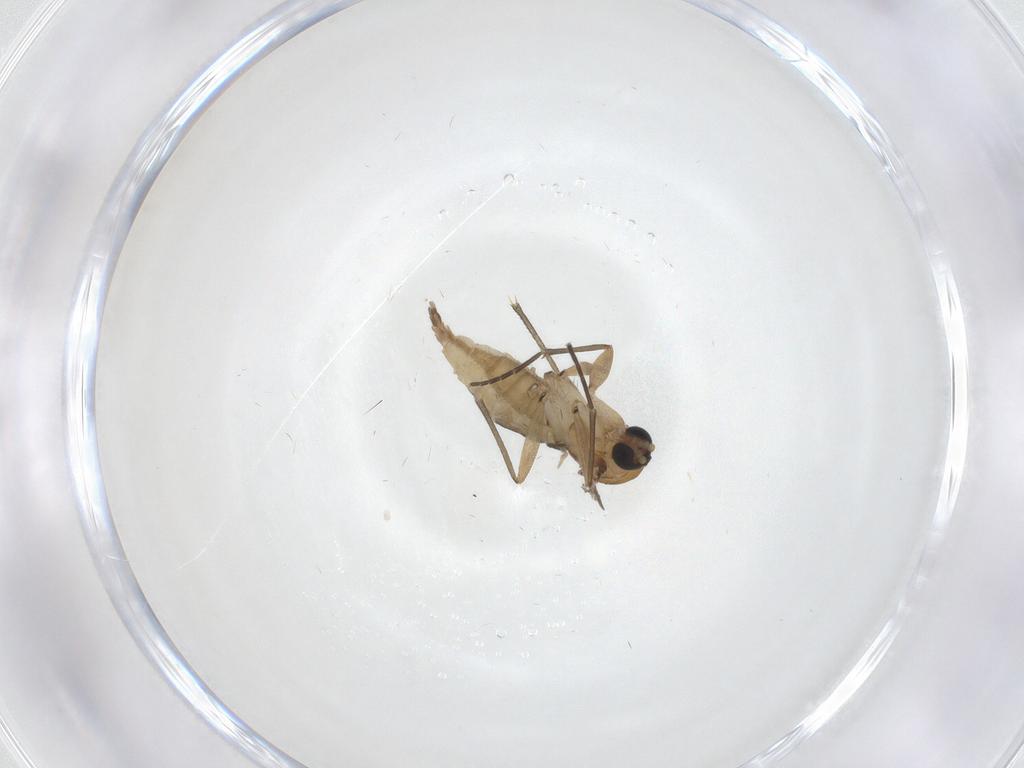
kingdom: Animalia
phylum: Arthropoda
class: Insecta
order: Diptera
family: Sciaridae
